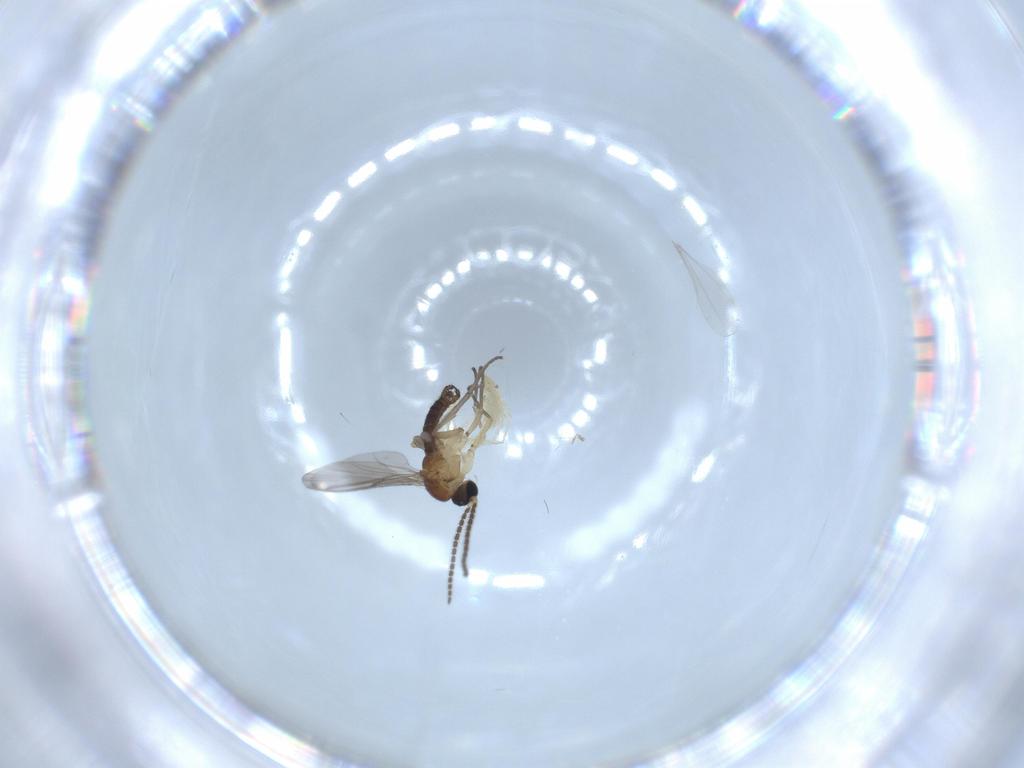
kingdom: Animalia
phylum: Arthropoda
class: Insecta
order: Diptera
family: Sciaridae
